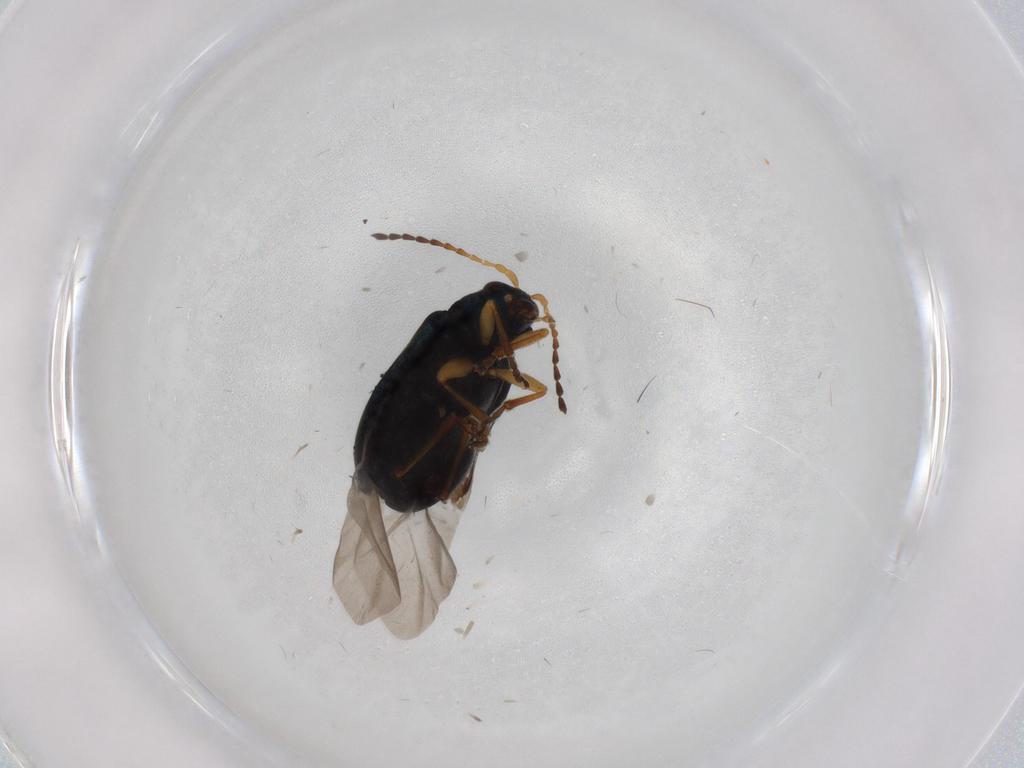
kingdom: Animalia
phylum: Arthropoda
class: Insecta
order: Coleoptera
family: Chrysomelidae
